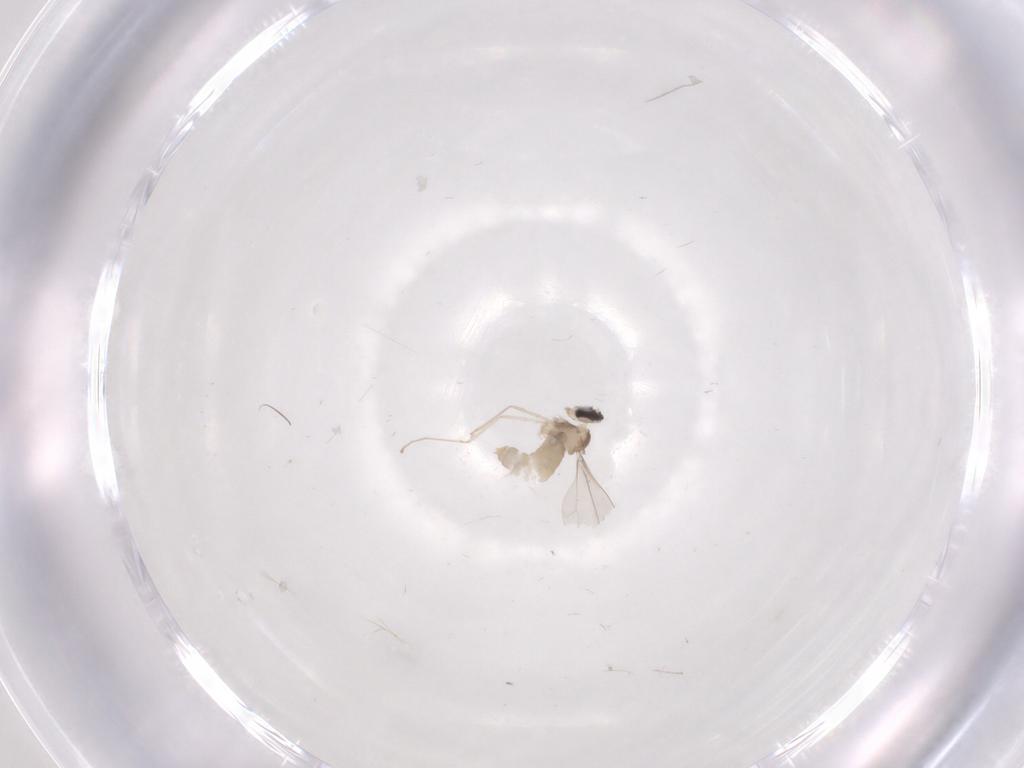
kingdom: Animalia
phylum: Arthropoda
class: Insecta
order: Diptera
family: Cecidomyiidae
